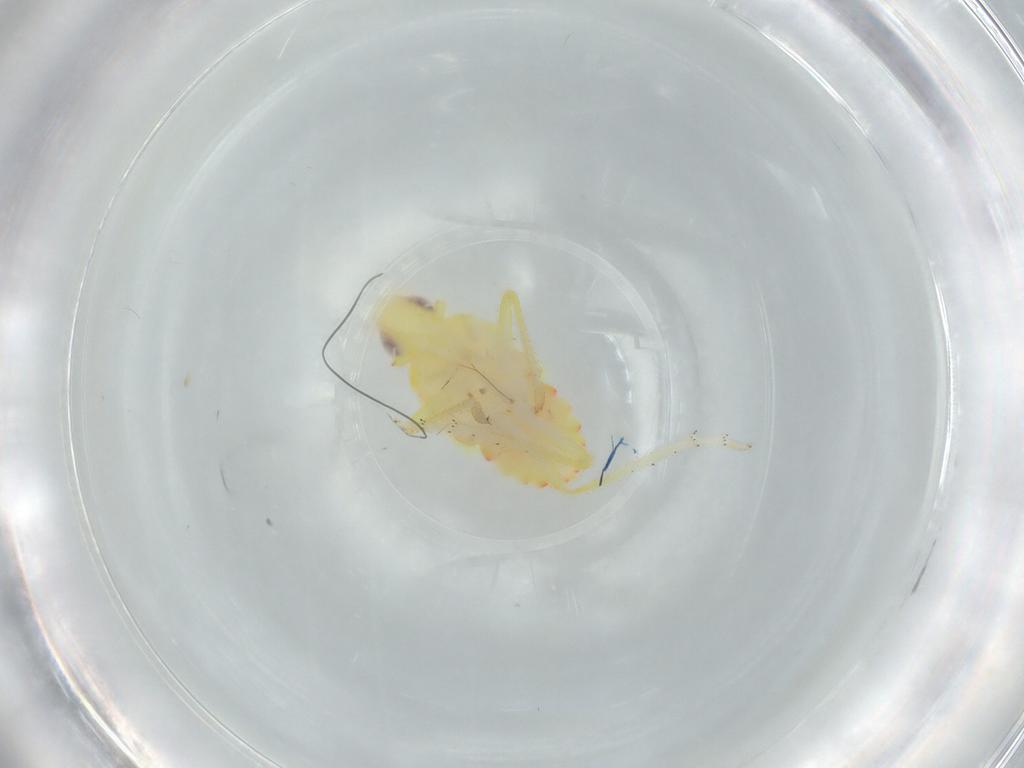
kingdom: Animalia
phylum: Arthropoda
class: Insecta
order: Hemiptera
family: Tropiduchidae
